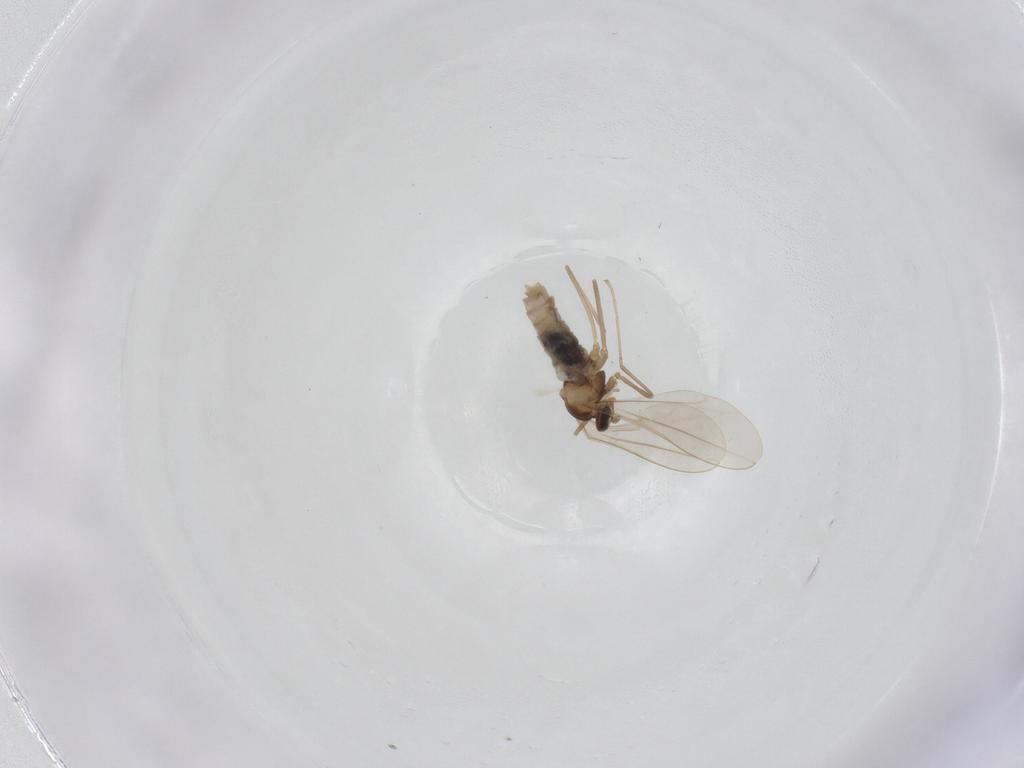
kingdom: Animalia
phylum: Arthropoda
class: Insecta
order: Diptera
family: Cecidomyiidae
